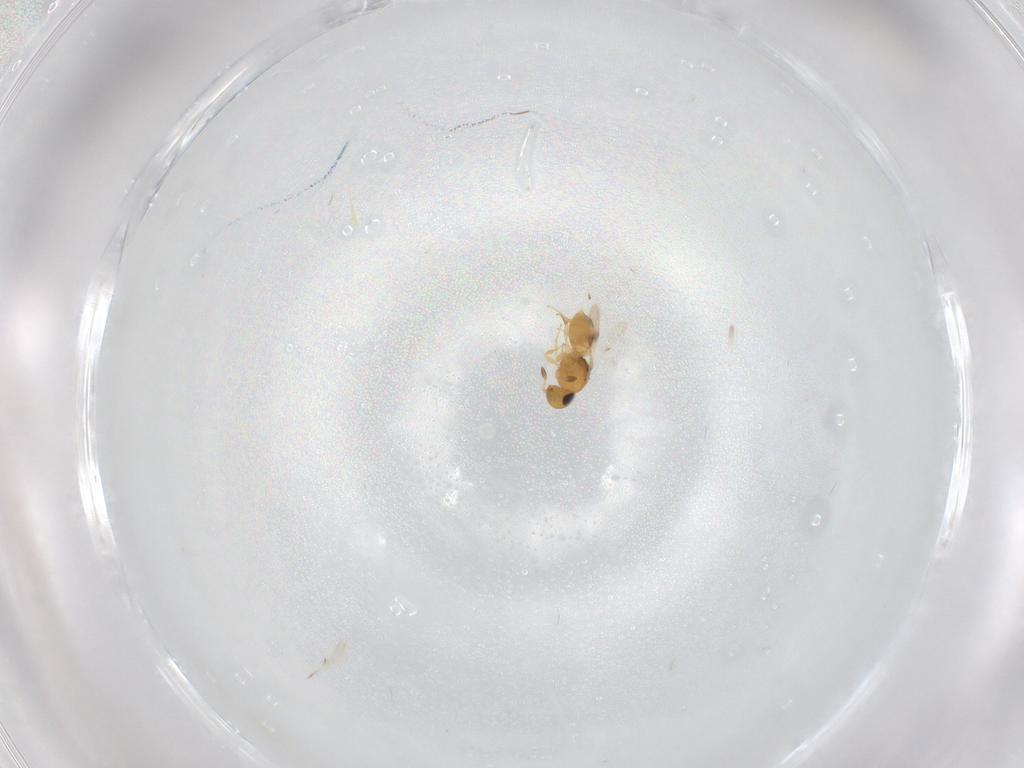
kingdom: Animalia
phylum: Arthropoda
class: Insecta
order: Hymenoptera
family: Scelionidae
